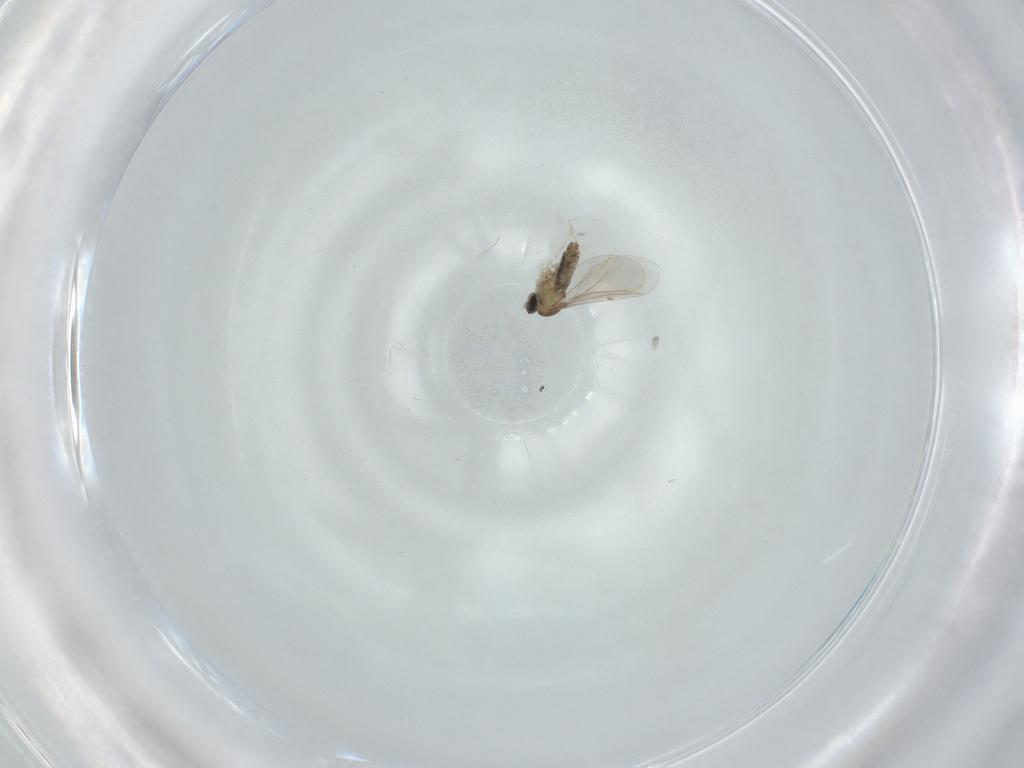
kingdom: Animalia
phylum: Arthropoda
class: Insecta
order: Diptera
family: Cecidomyiidae
